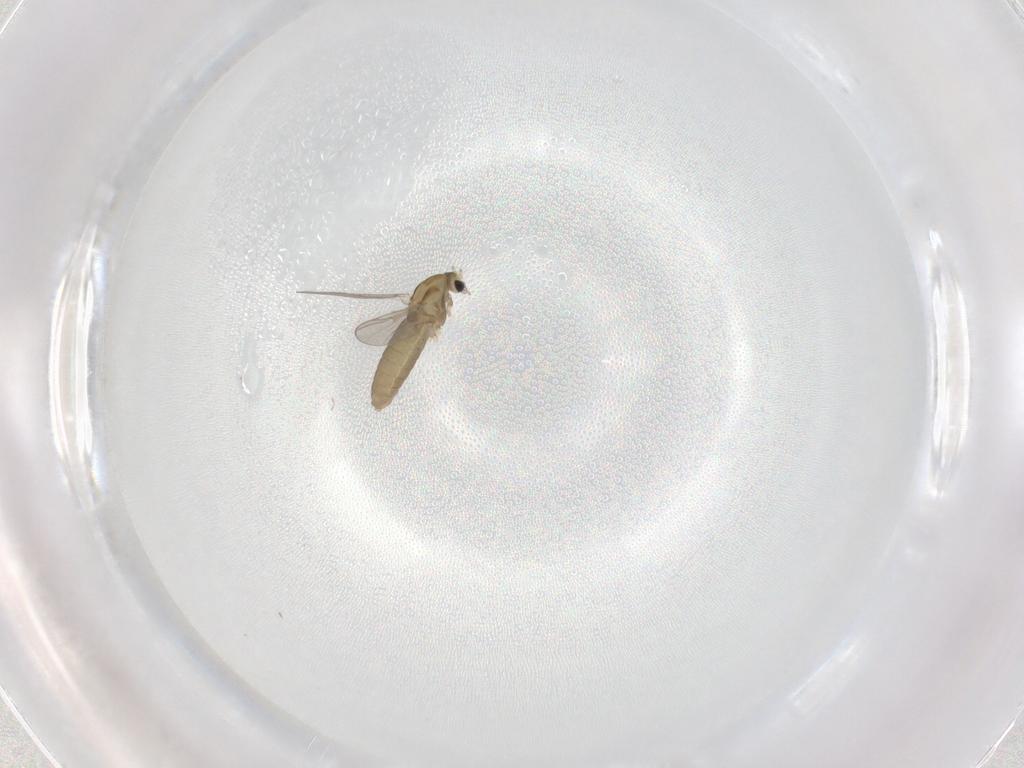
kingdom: Animalia
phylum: Arthropoda
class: Insecta
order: Diptera
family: Chironomidae
